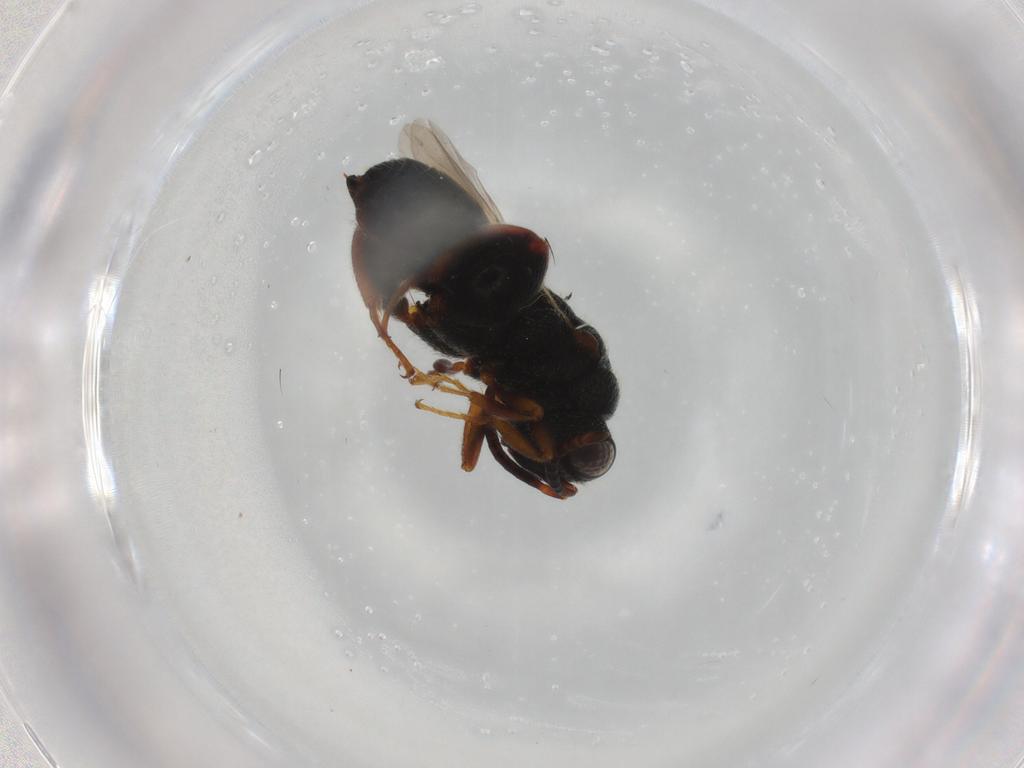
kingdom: Animalia
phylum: Arthropoda
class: Insecta
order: Hymenoptera
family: Chalcididae
